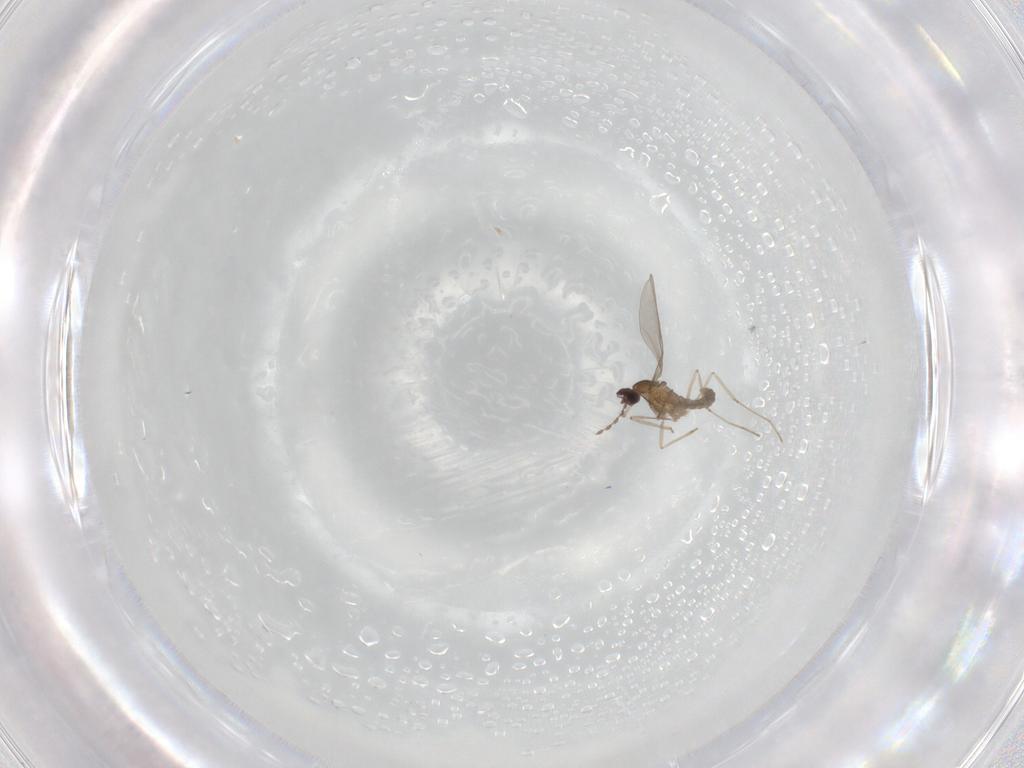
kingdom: Animalia
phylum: Arthropoda
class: Insecta
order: Diptera
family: Cecidomyiidae
